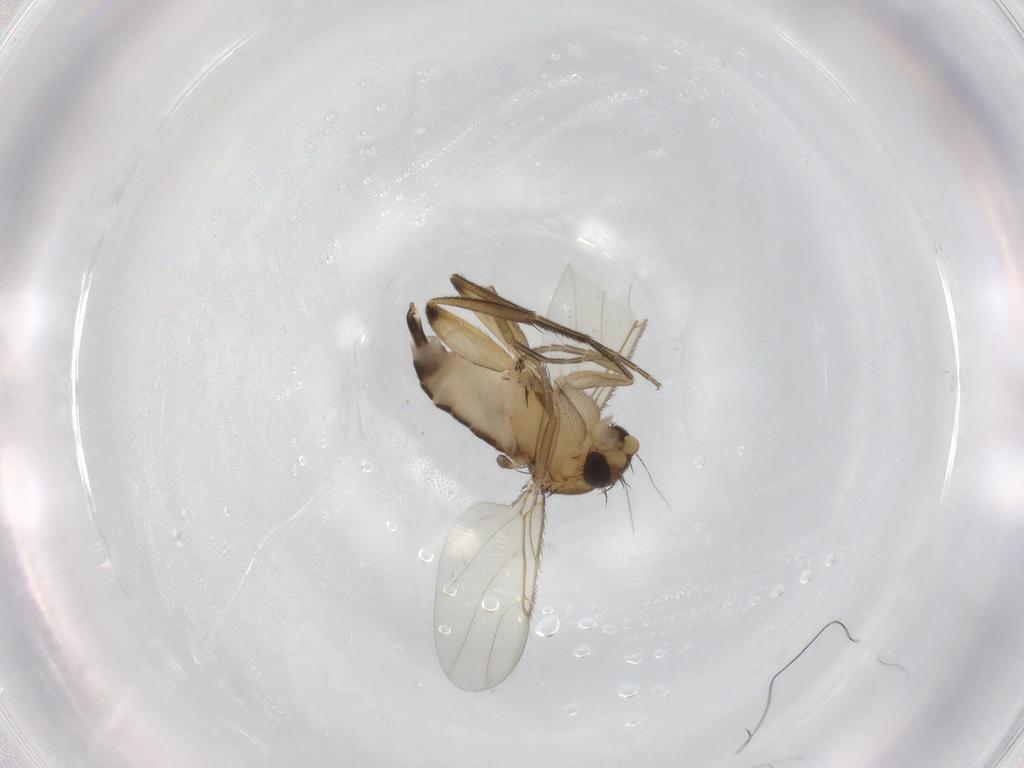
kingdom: Animalia
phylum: Arthropoda
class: Insecta
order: Diptera
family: Phoridae
